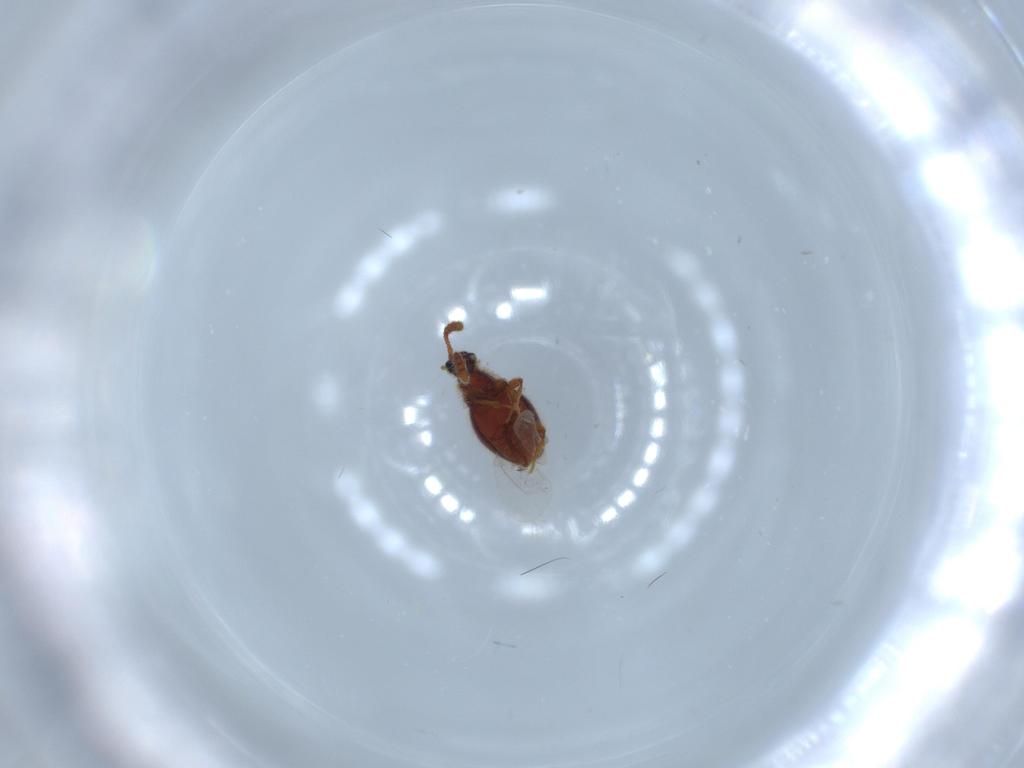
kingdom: Animalia
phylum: Arthropoda
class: Insecta
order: Coleoptera
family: Staphylinidae
